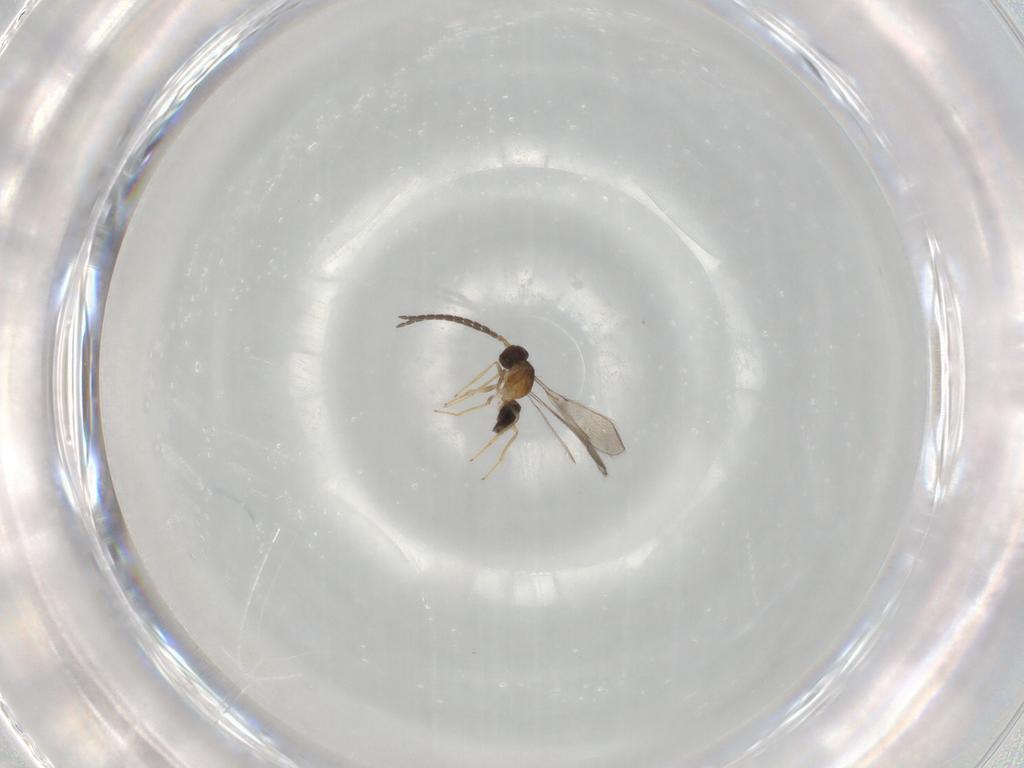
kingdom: Animalia
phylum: Arthropoda
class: Insecta
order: Hymenoptera
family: Mymaridae
